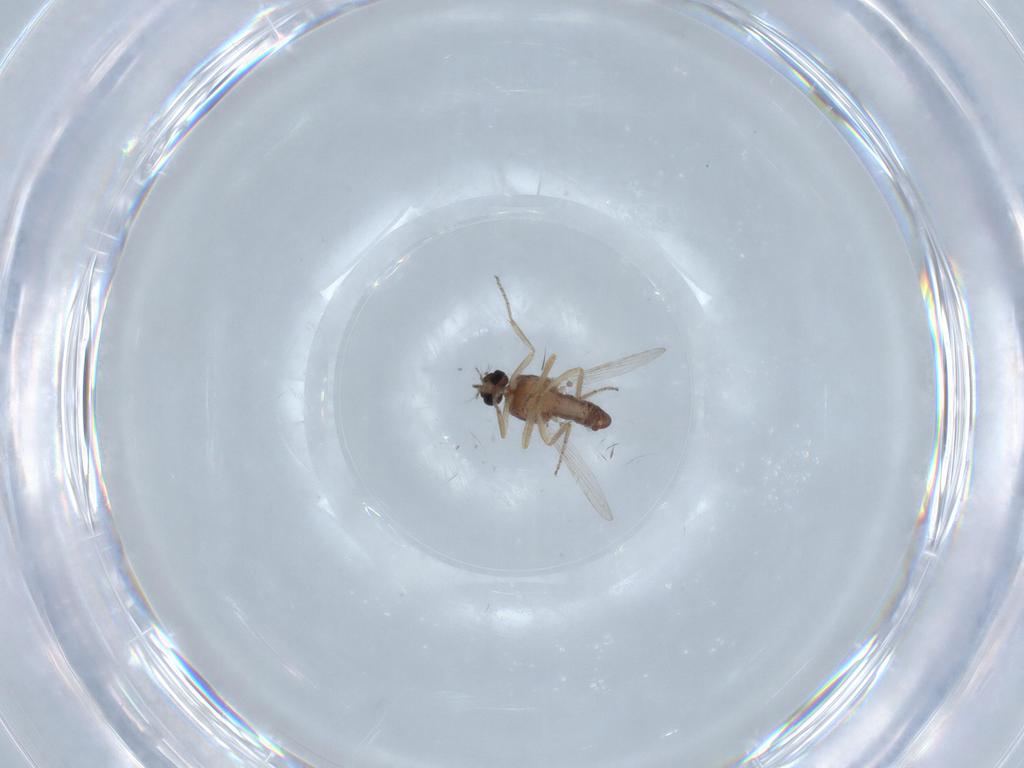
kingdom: Animalia
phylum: Arthropoda
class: Insecta
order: Diptera
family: Ceratopogonidae
